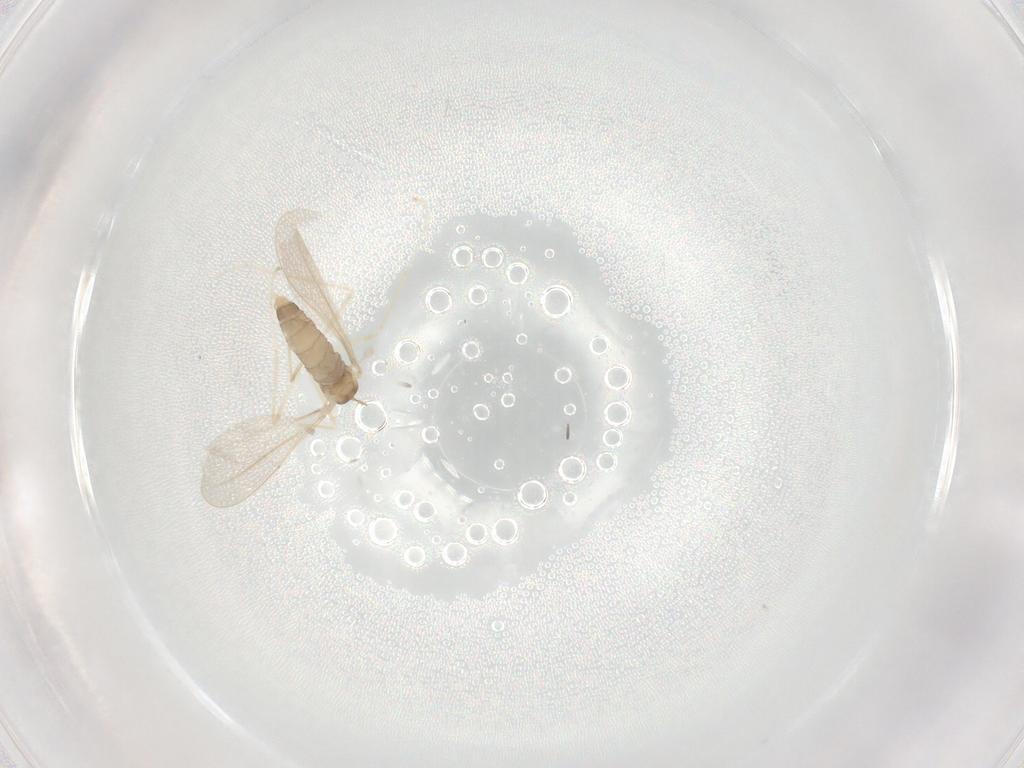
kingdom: Animalia
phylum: Arthropoda
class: Insecta
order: Diptera
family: Cecidomyiidae
